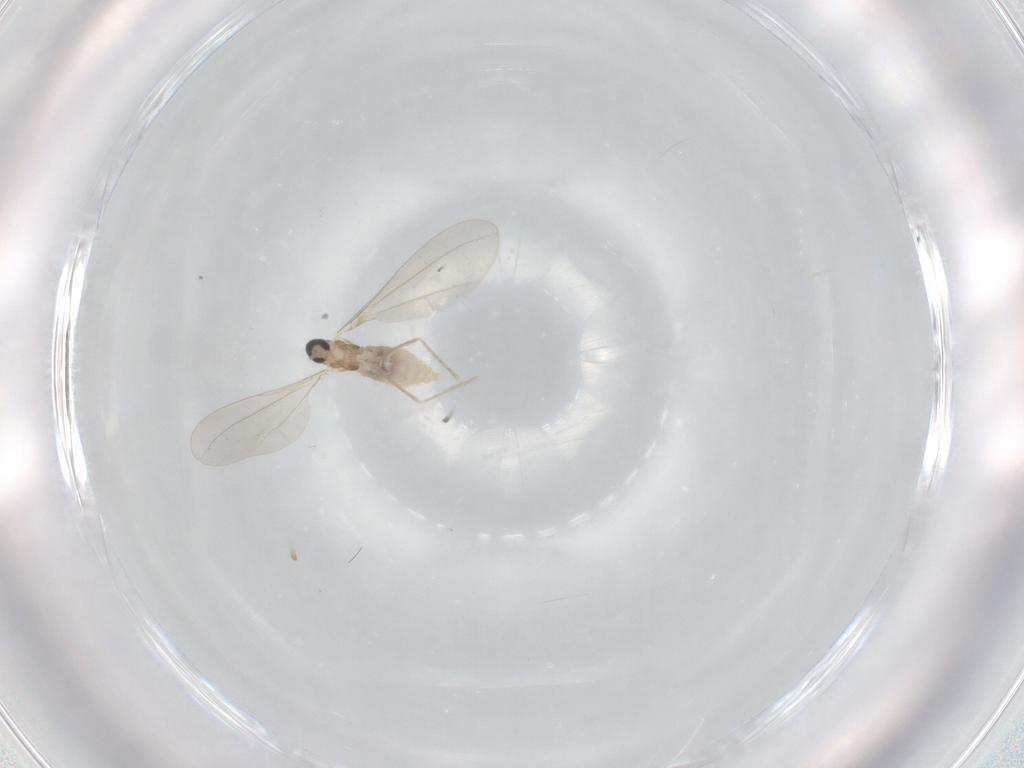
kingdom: Animalia
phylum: Arthropoda
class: Insecta
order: Diptera
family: Cecidomyiidae
